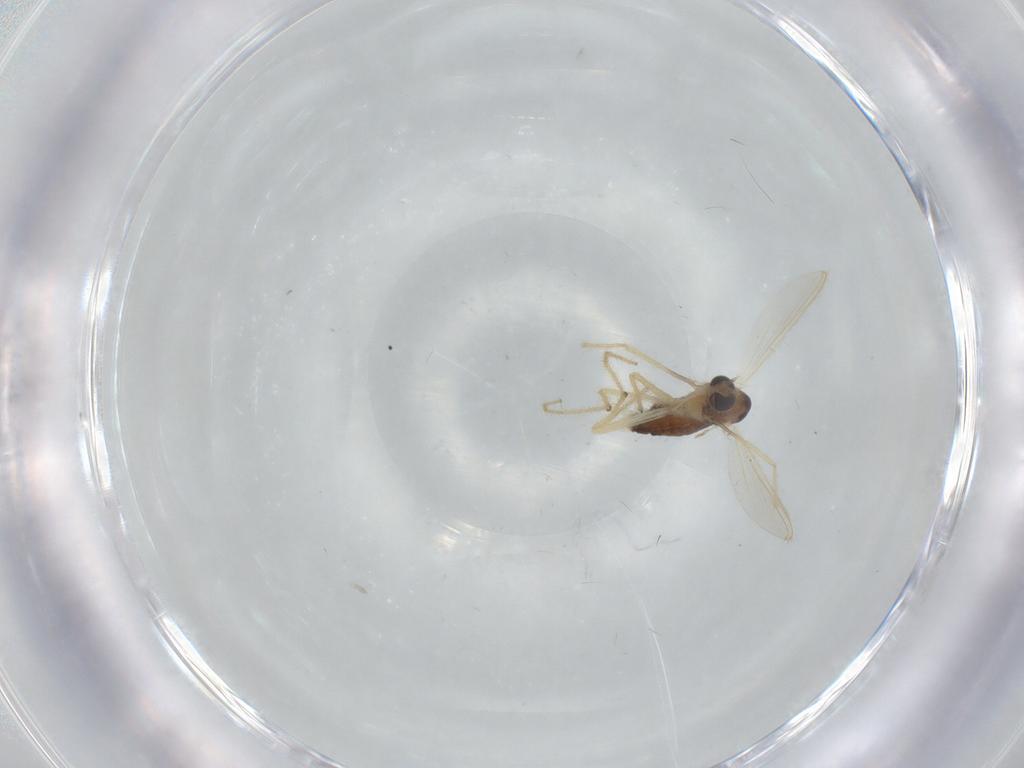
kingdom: Animalia
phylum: Arthropoda
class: Insecta
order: Diptera
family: Chironomidae
